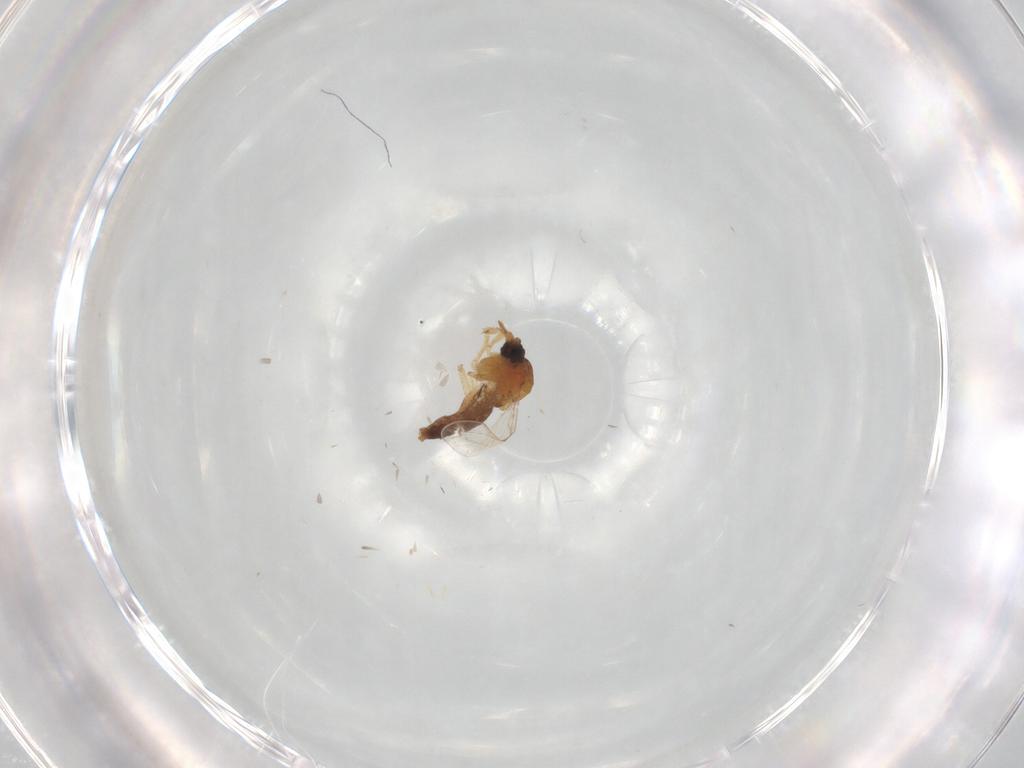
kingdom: Animalia
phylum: Arthropoda
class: Insecta
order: Diptera
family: Ceratopogonidae
